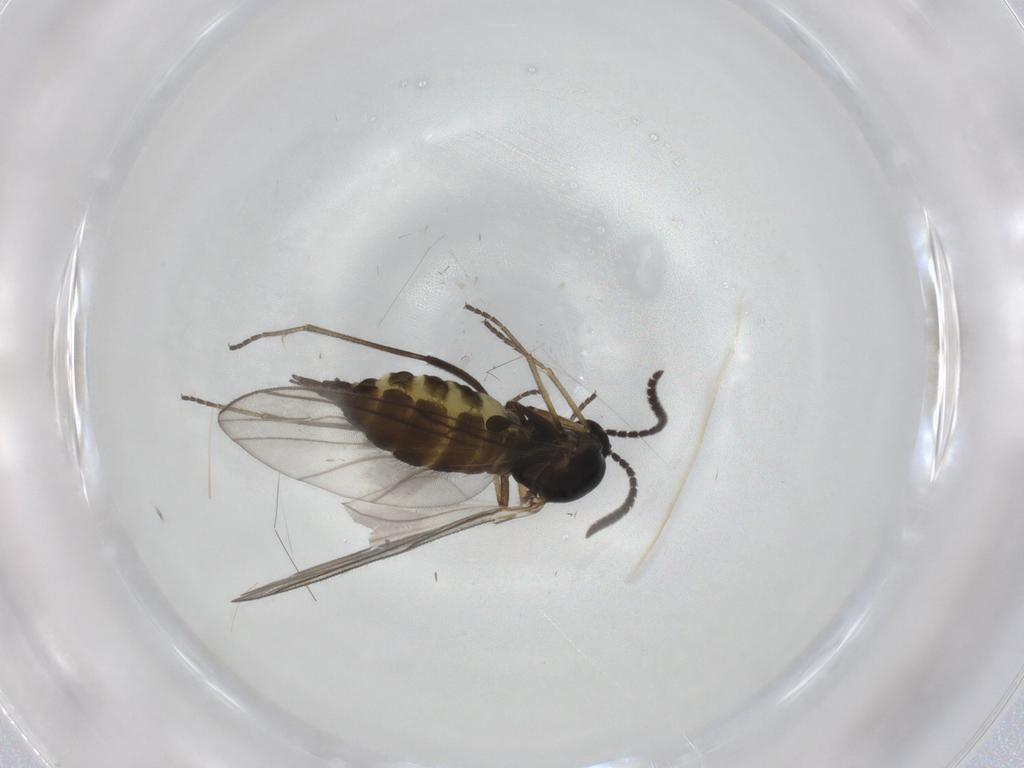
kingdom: Animalia
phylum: Arthropoda
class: Insecta
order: Diptera
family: Sciaridae
